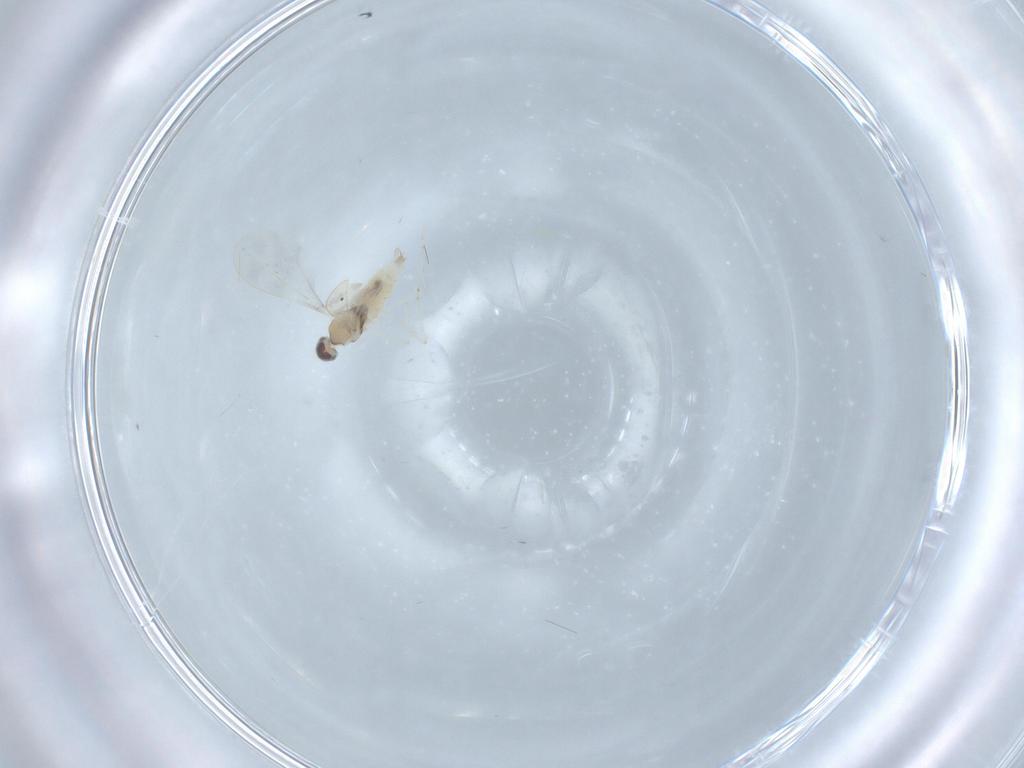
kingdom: Animalia
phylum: Arthropoda
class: Insecta
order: Diptera
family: Cecidomyiidae
